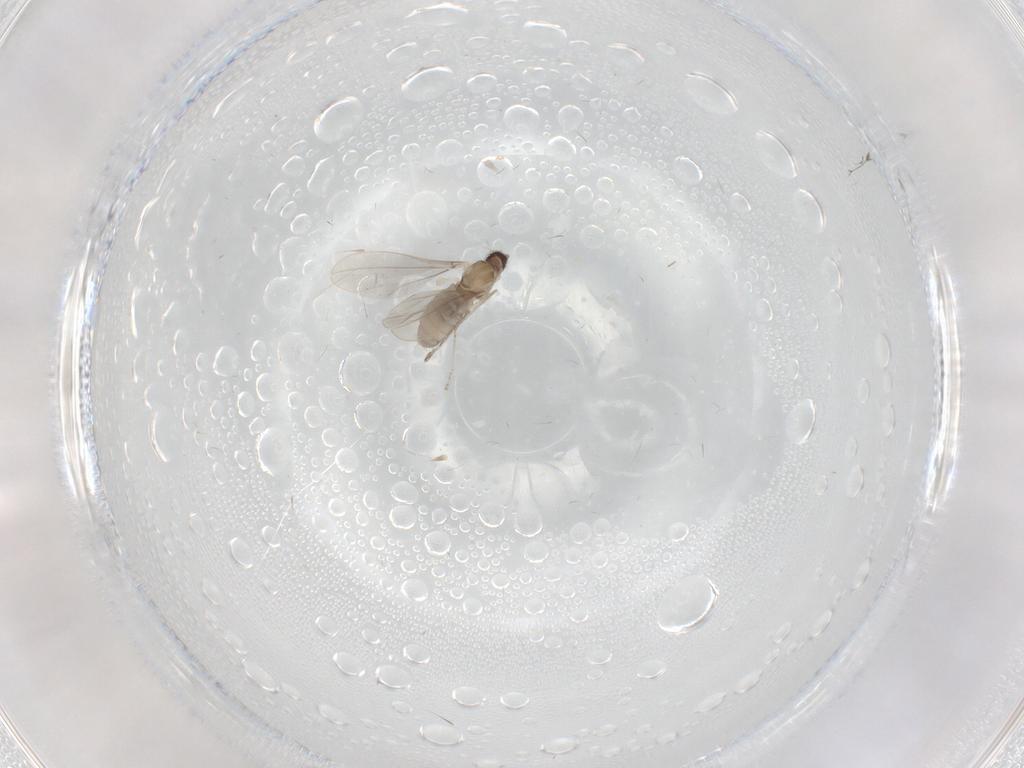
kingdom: Animalia
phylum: Arthropoda
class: Insecta
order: Diptera
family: Cecidomyiidae
